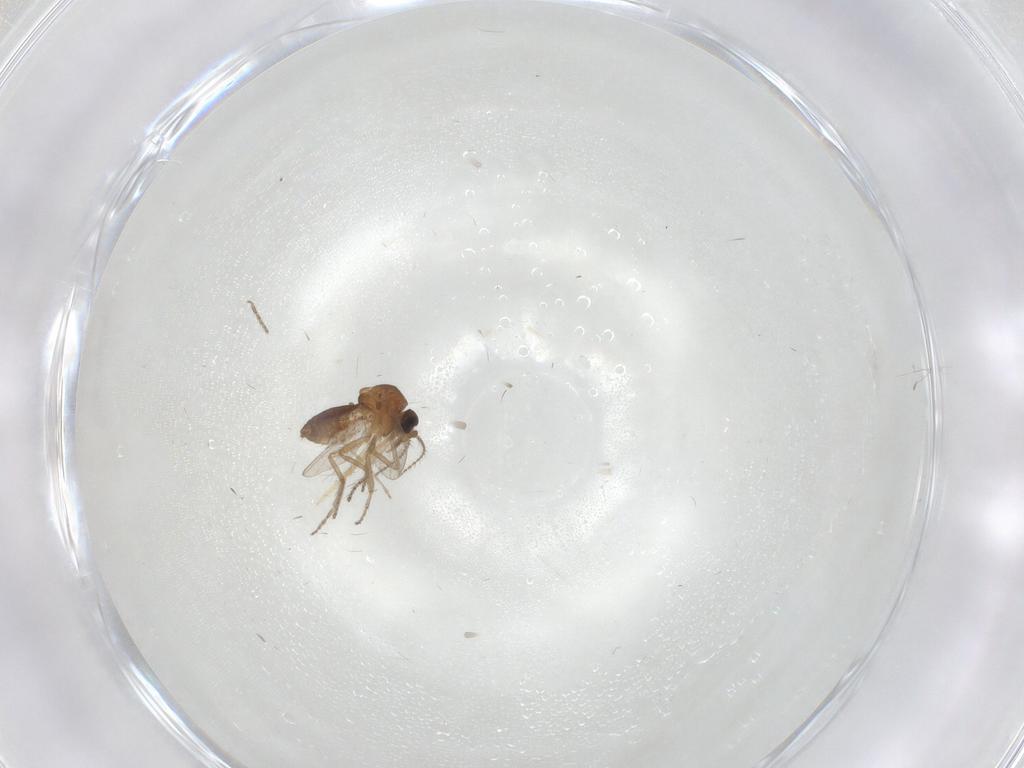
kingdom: Animalia
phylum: Arthropoda
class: Insecta
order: Diptera
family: Ceratopogonidae
